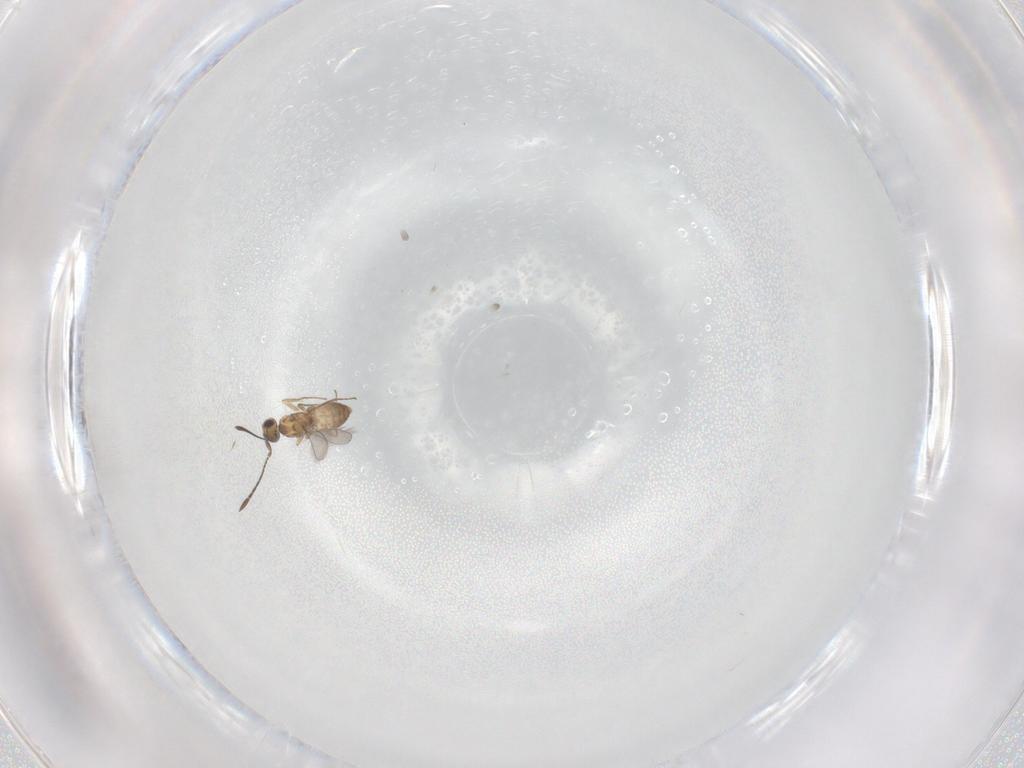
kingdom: Animalia
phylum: Arthropoda
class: Insecta
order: Hymenoptera
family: Mymaridae
